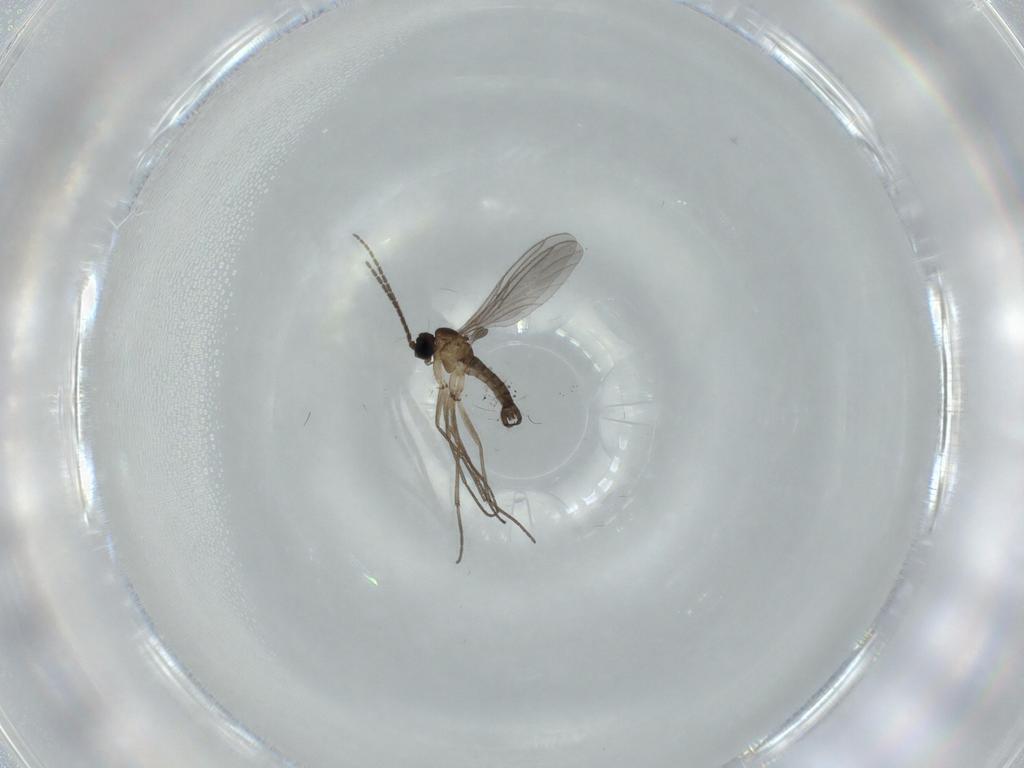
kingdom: Animalia
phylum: Arthropoda
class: Insecta
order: Diptera
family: Sciaridae
